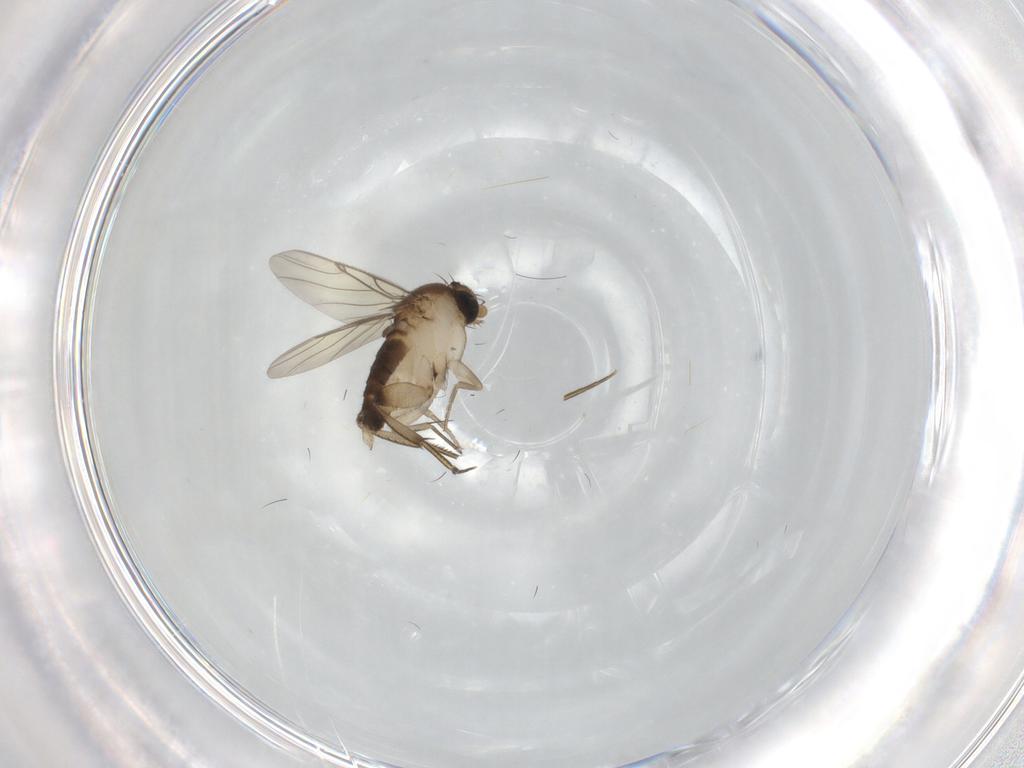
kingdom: Animalia
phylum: Arthropoda
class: Insecta
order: Diptera
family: Phoridae
